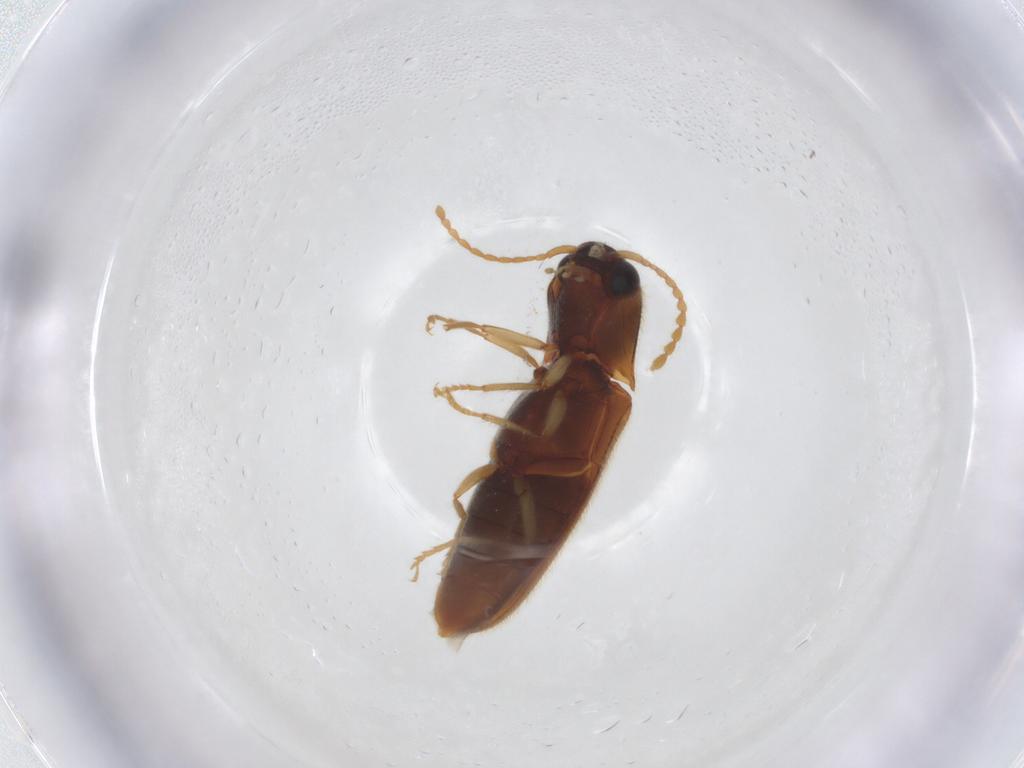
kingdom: Animalia
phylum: Arthropoda
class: Insecta
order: Coleoptera
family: Elateridae
